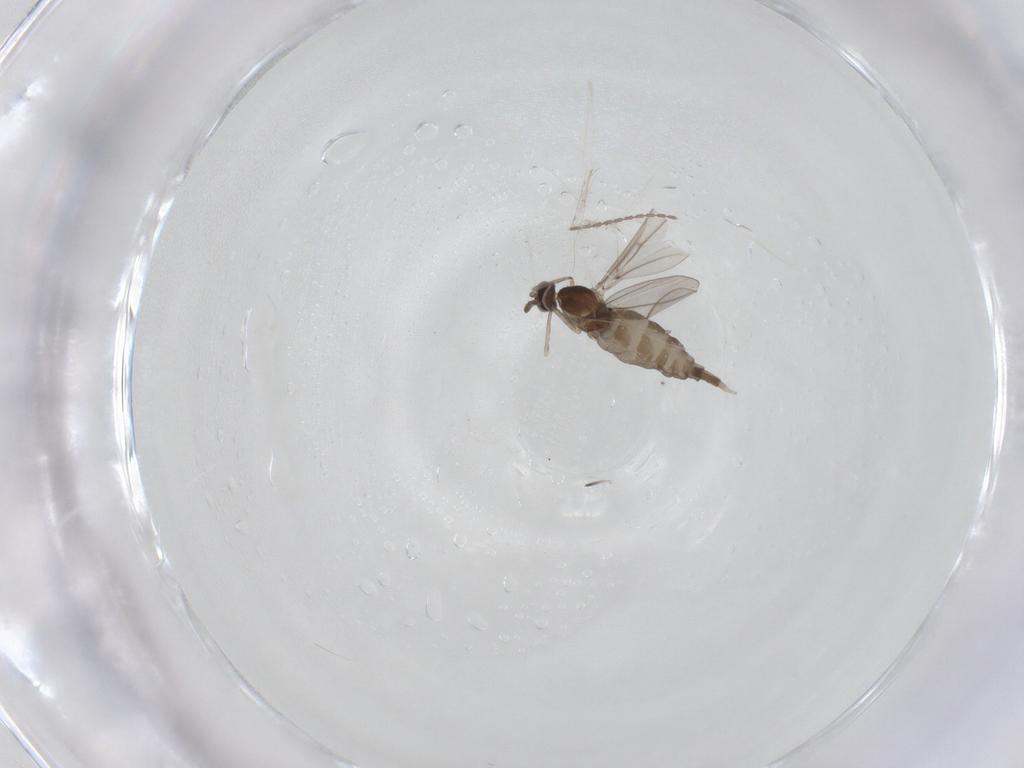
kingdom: Animalia
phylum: Arthropoda
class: Insecta
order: Diptera
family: Cecidomyiidae
